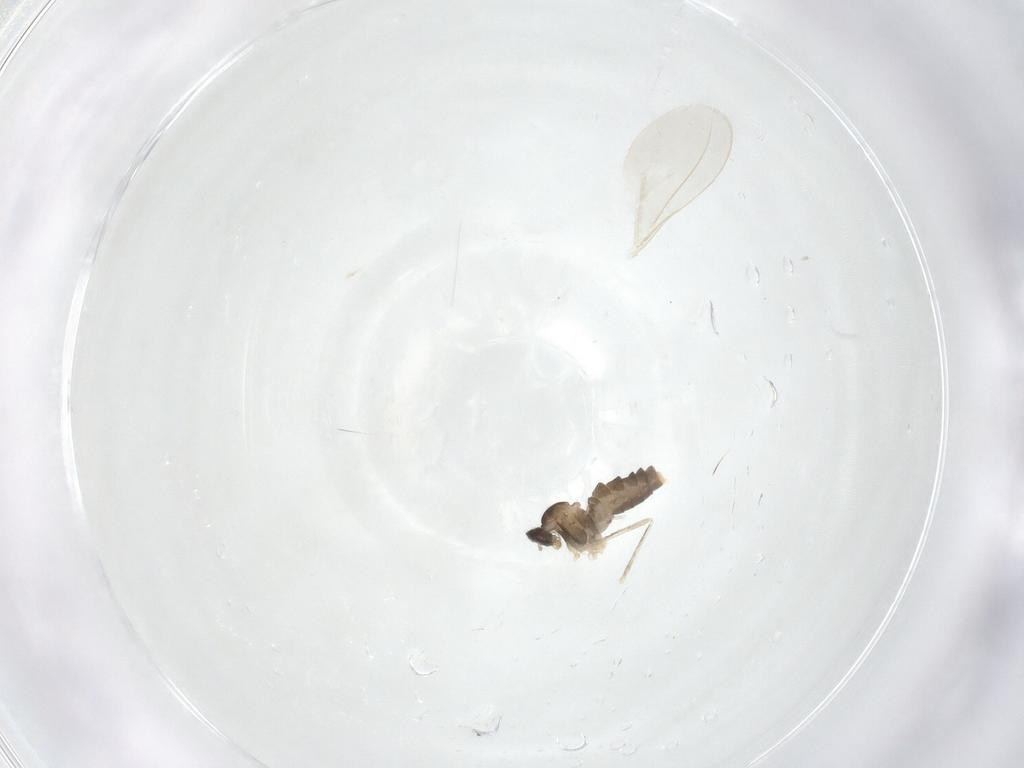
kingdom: Animalia
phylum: Arthropoda
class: Insecta
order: Diptera
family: Cecidomyiidae
